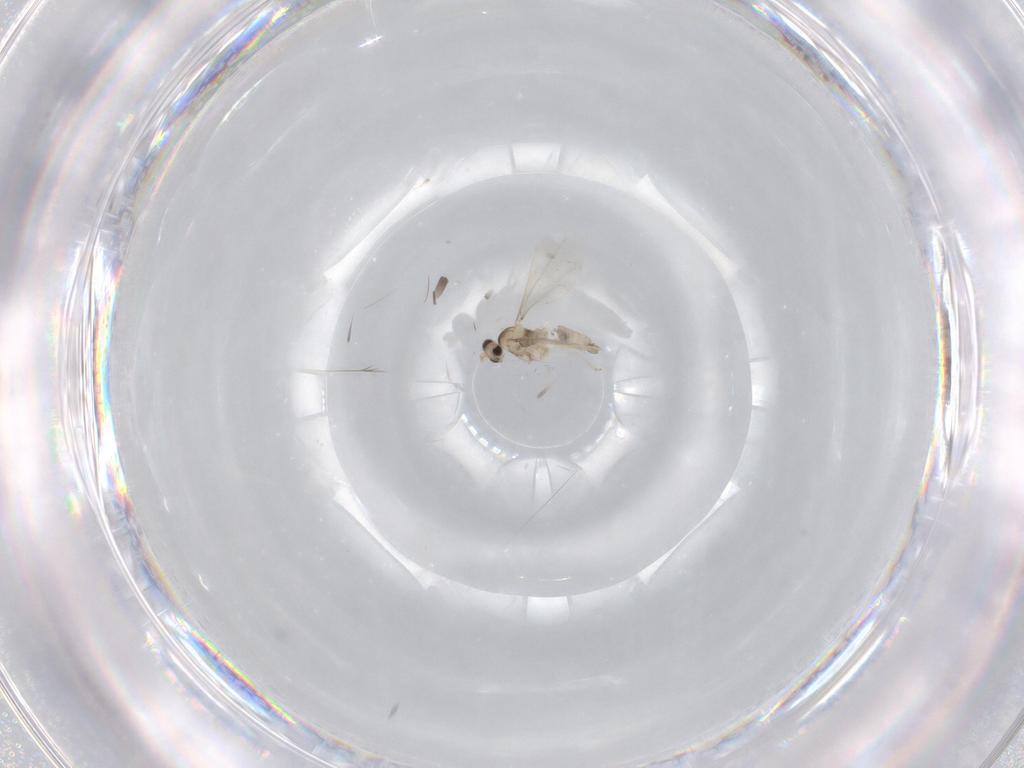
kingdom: Animalia
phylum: Arthropoda
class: Insecta
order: Diptera
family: Cecidomyiidae
